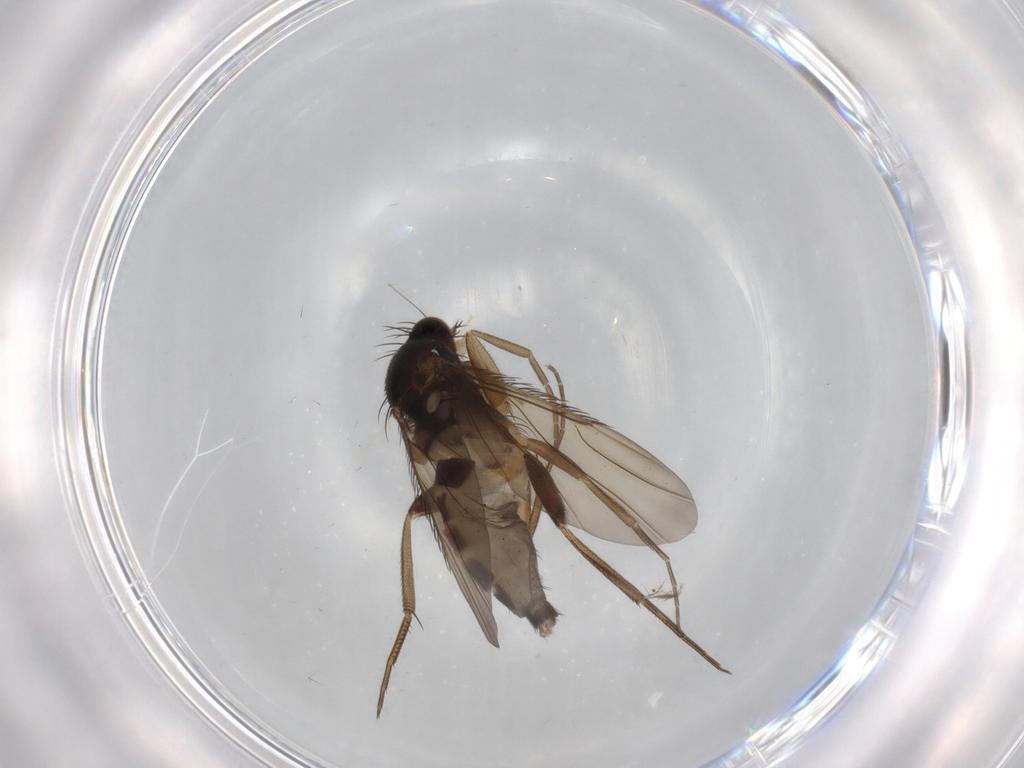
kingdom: Animalia
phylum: Arthropoda
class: Insecta
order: Diptera
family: Phoridae
